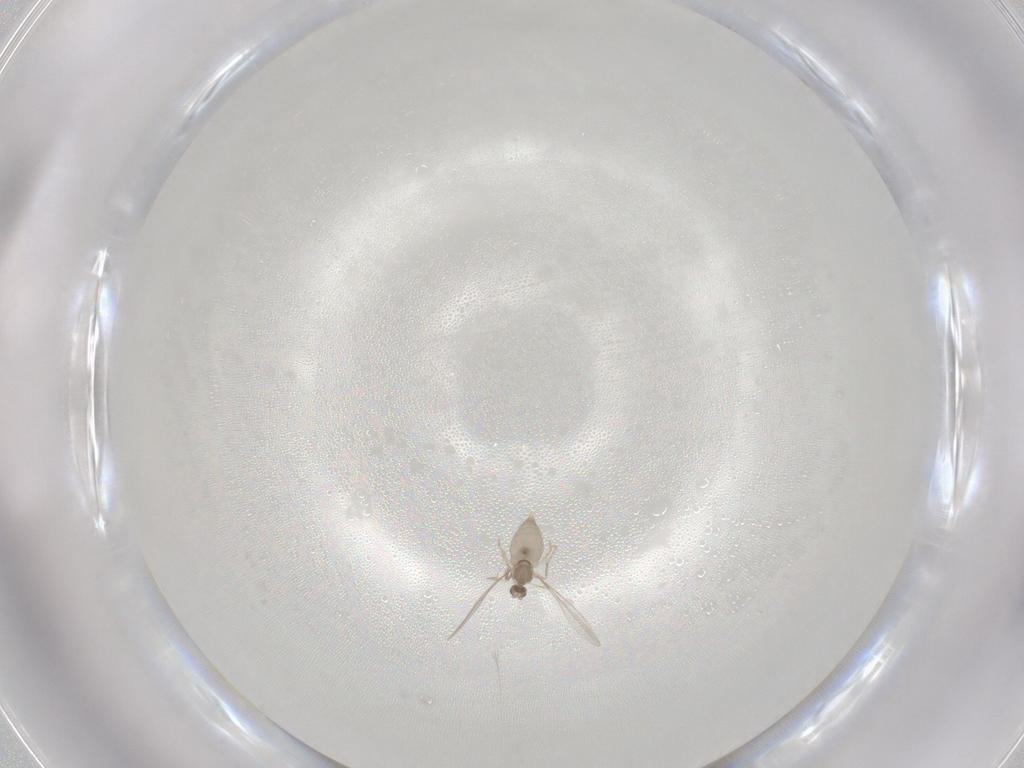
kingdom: Animalia
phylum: Arthropoda
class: Insecta
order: Diptera
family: Cecidomyiidae
